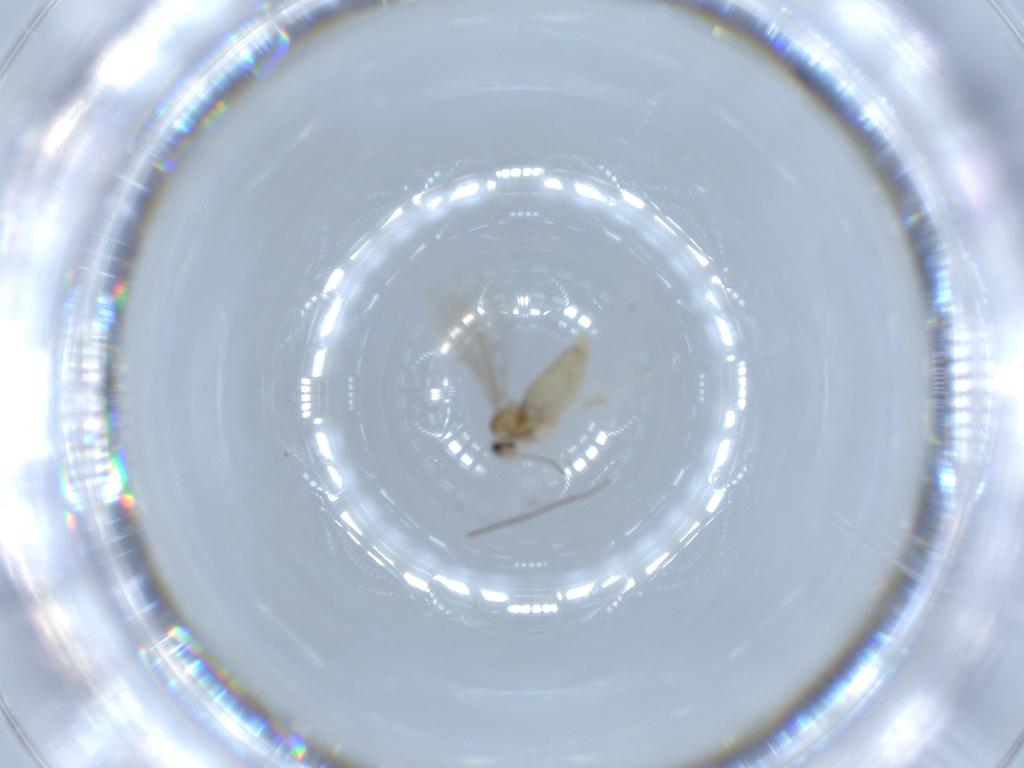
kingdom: Animalia
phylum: Arthropoda
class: Insecta
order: Diptera
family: Cecidomyiidae
